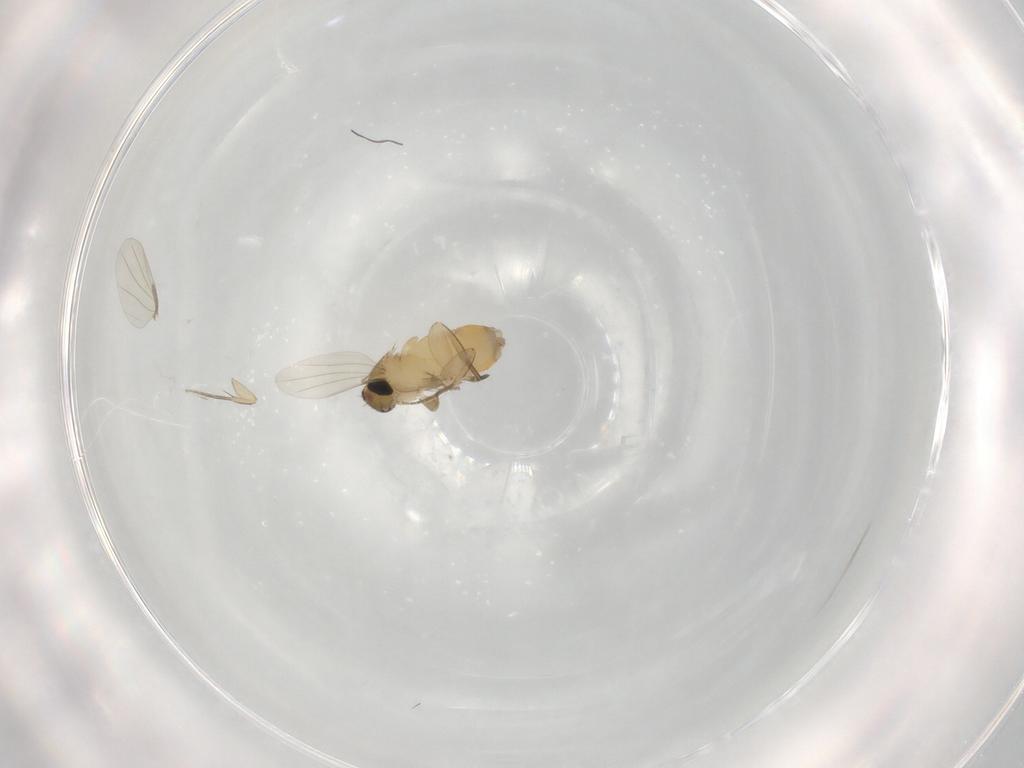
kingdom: Animalia
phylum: Arthropoda
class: Insecta
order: Diptera
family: Phoridae
